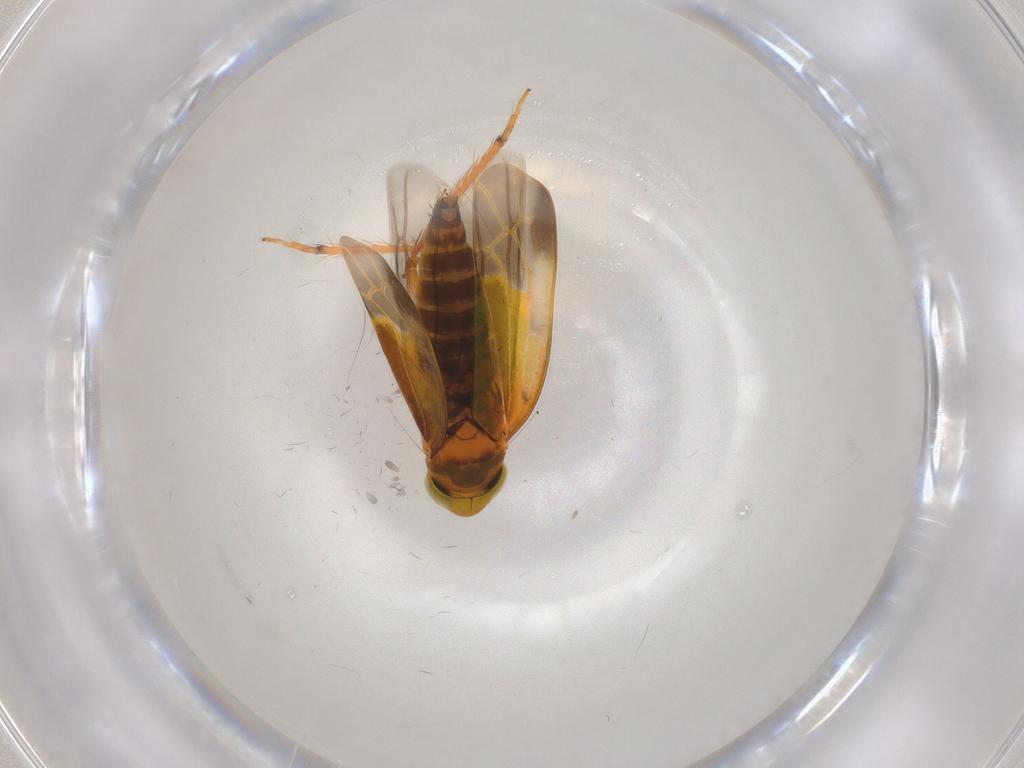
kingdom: Animalia
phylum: Arthropoda
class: Insecta
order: Hemiptera
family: Cicadellidae
